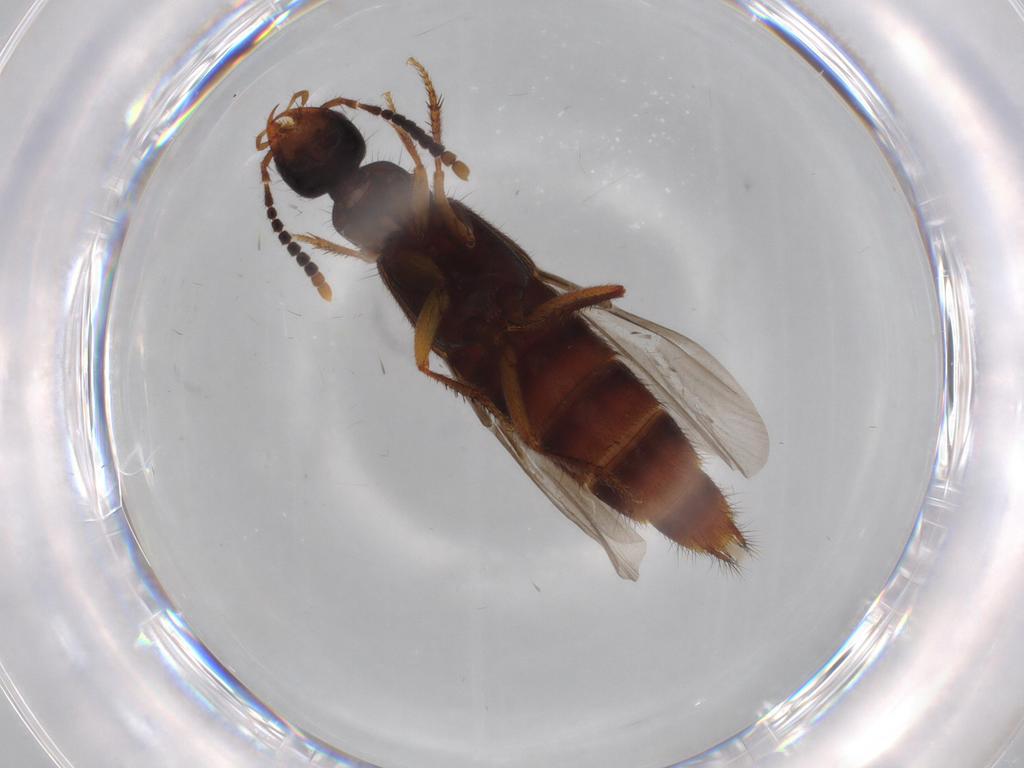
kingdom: Animalia
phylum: Arthropoda
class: Insecta
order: Coleoptera
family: Staphylinidae
